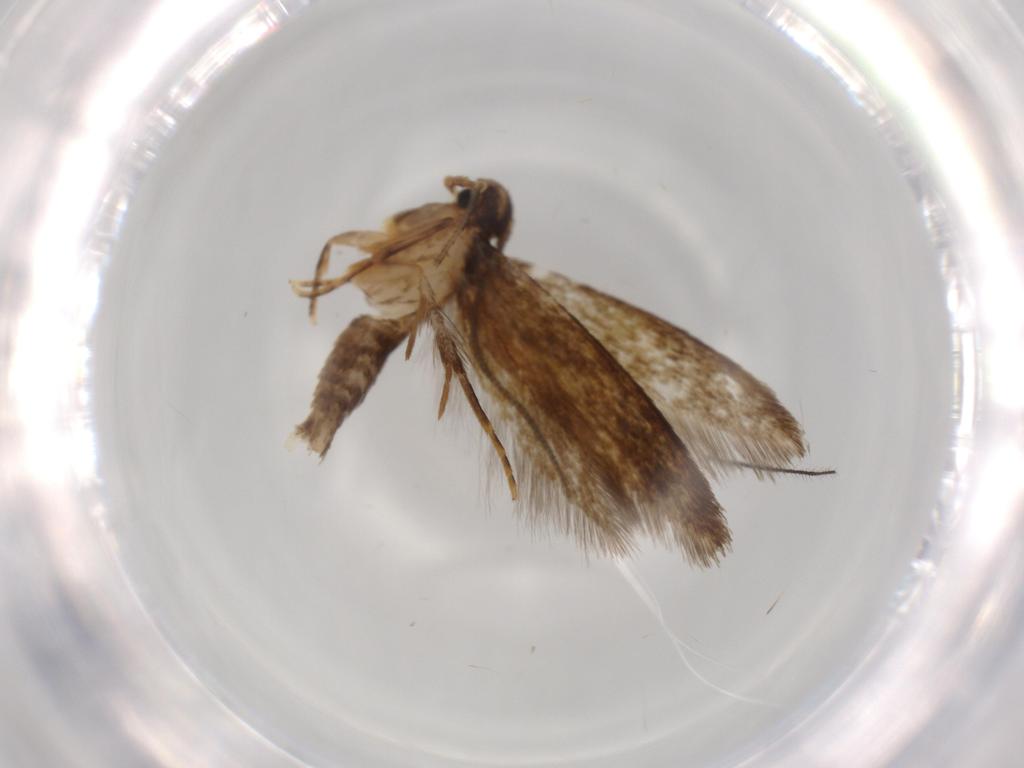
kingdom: Animalia
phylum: Arthropoda
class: Insecta
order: Lepidoptera
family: Tineidae
